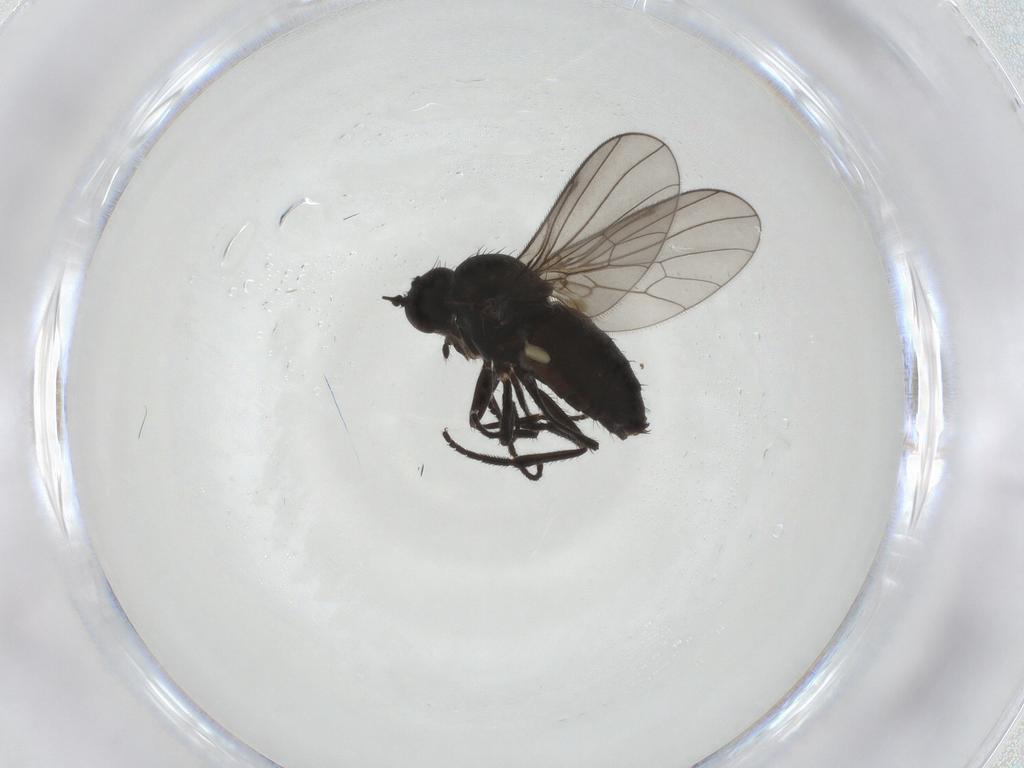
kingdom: Animalia
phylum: Arthropoda
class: Insecta
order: Diptera
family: Dolichopodidae
